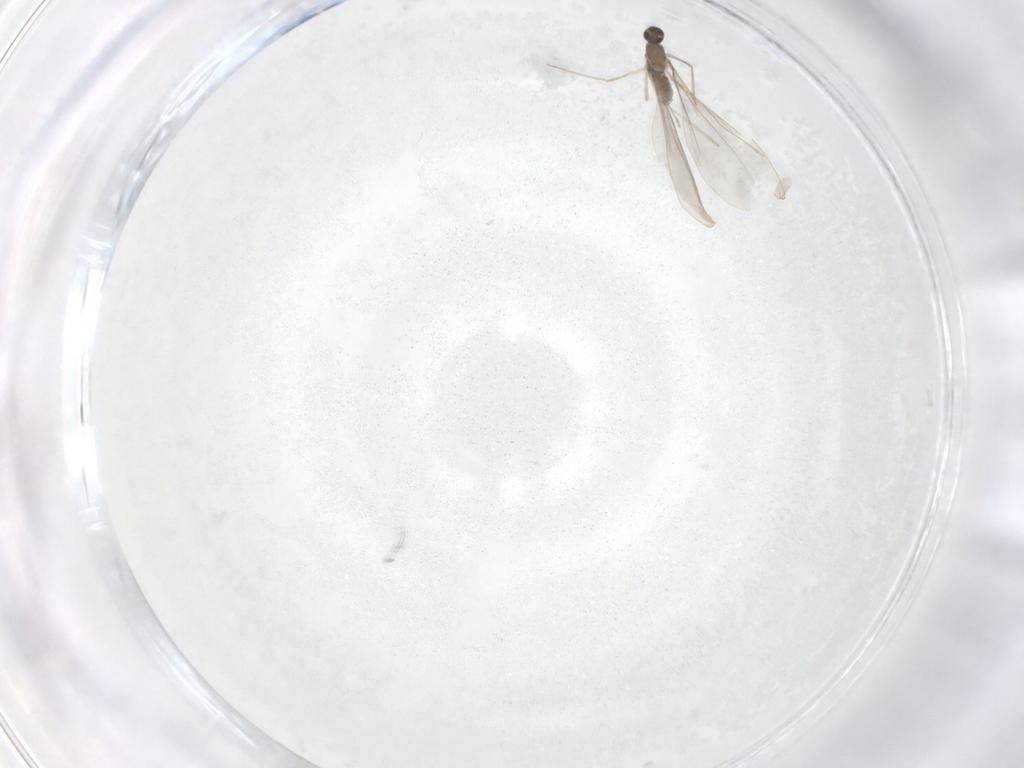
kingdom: Animalia
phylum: Arthropoda
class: Insecta
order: Diptera
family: Cecidomyiidae
